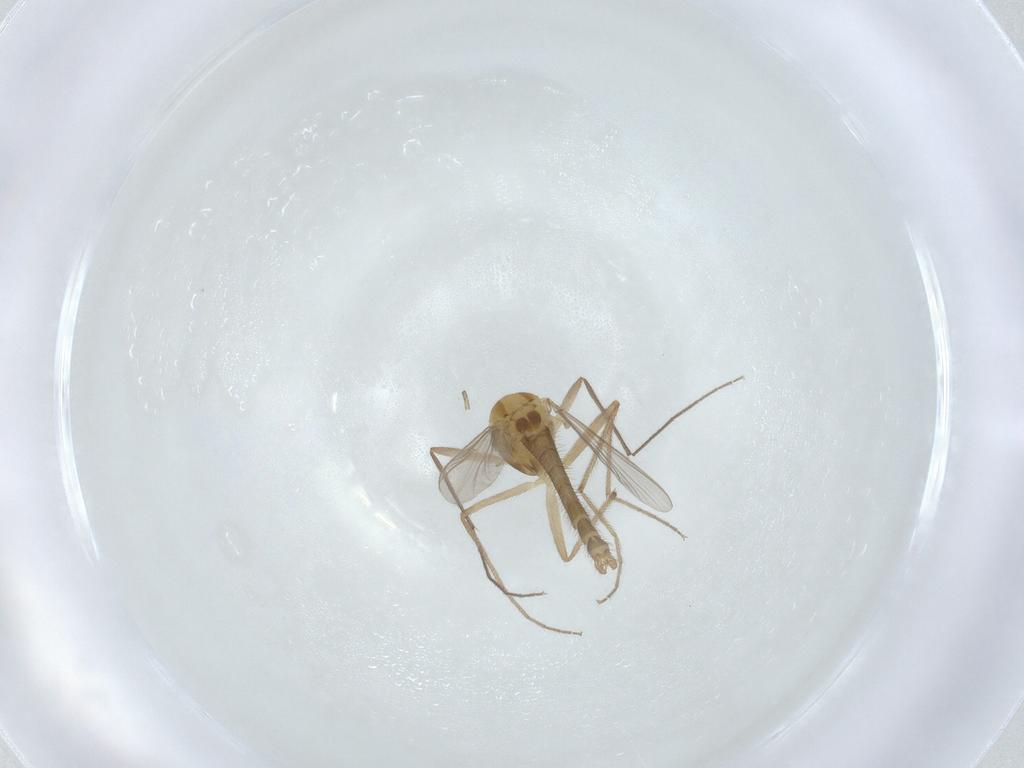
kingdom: Animalia
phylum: Arthropoda
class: Insecta
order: Diptera
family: Chironomidae
